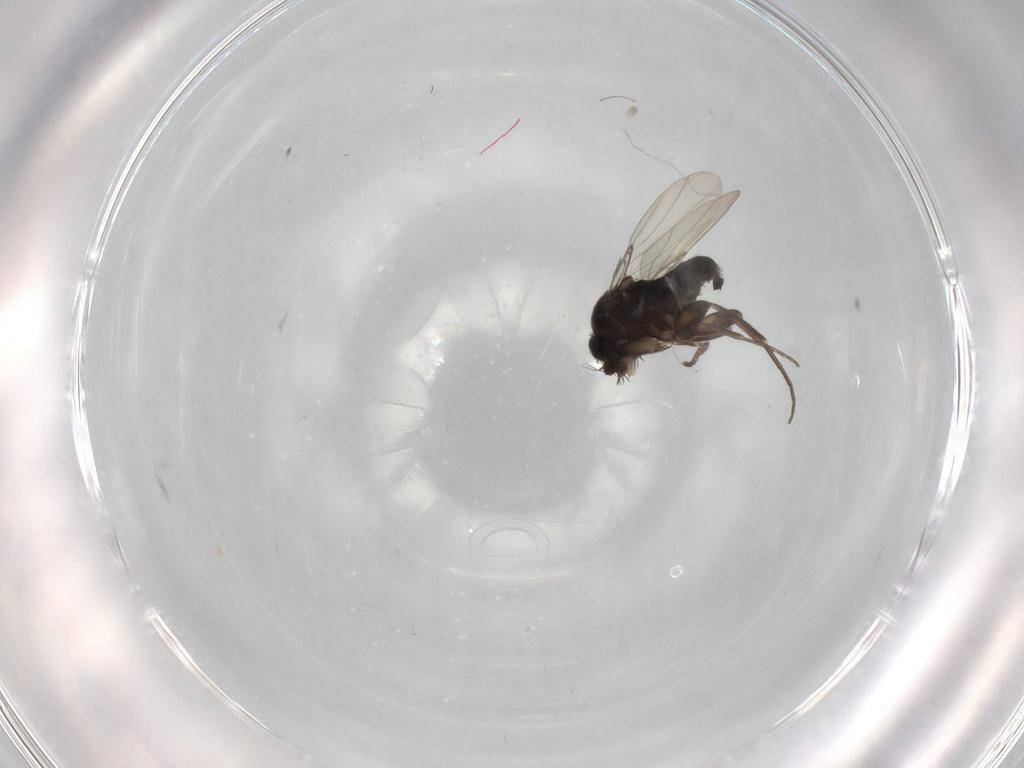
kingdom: Animalia
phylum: Arthropoda
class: Insecta
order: Diptera
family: Phoridae
